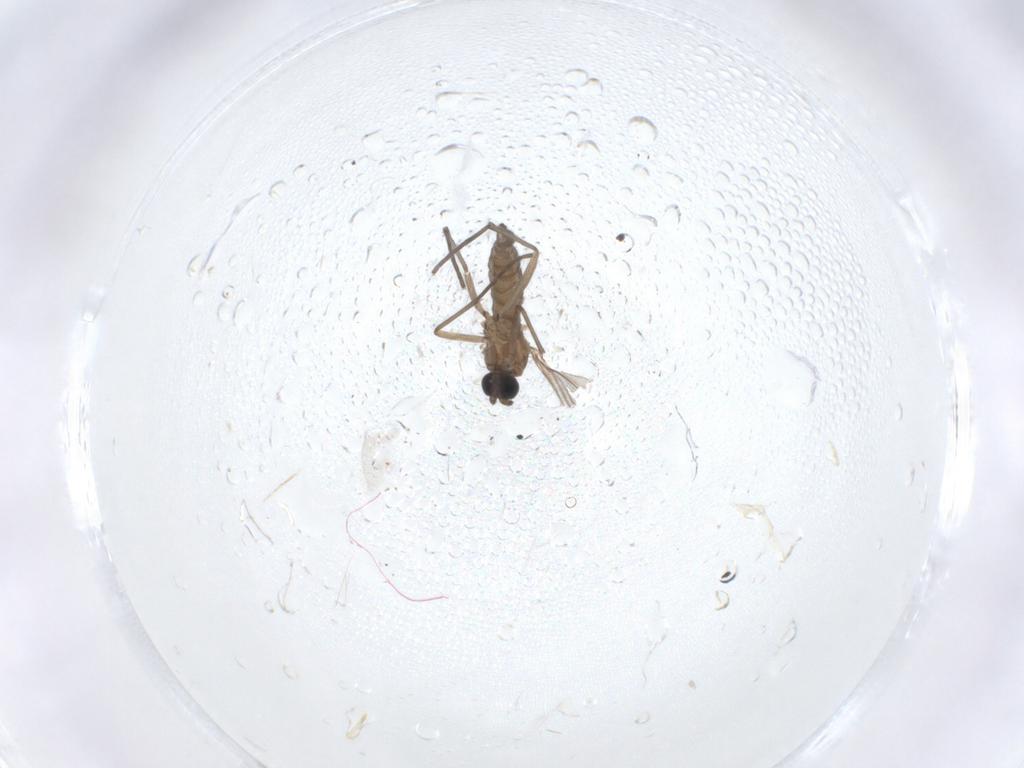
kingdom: Animalia
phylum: Arthropoda
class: Insecta
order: Diptera
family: Sciaridae
